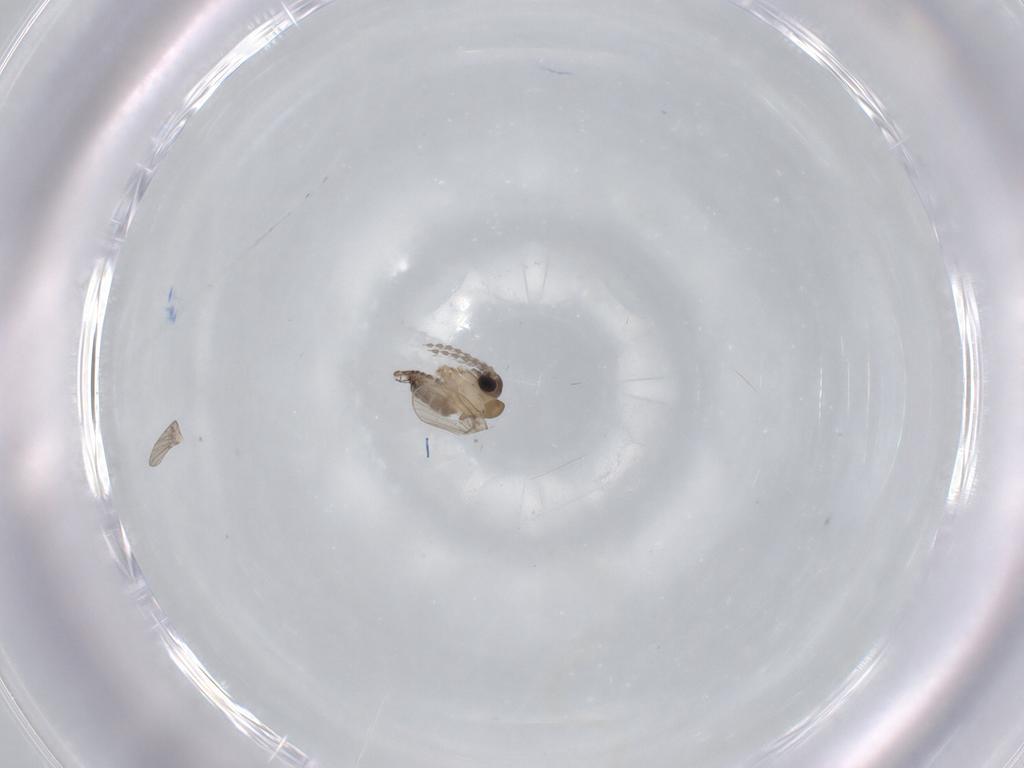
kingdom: Animalia
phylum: Arthropoda
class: Insecta
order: Diptera
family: Psychodidae
